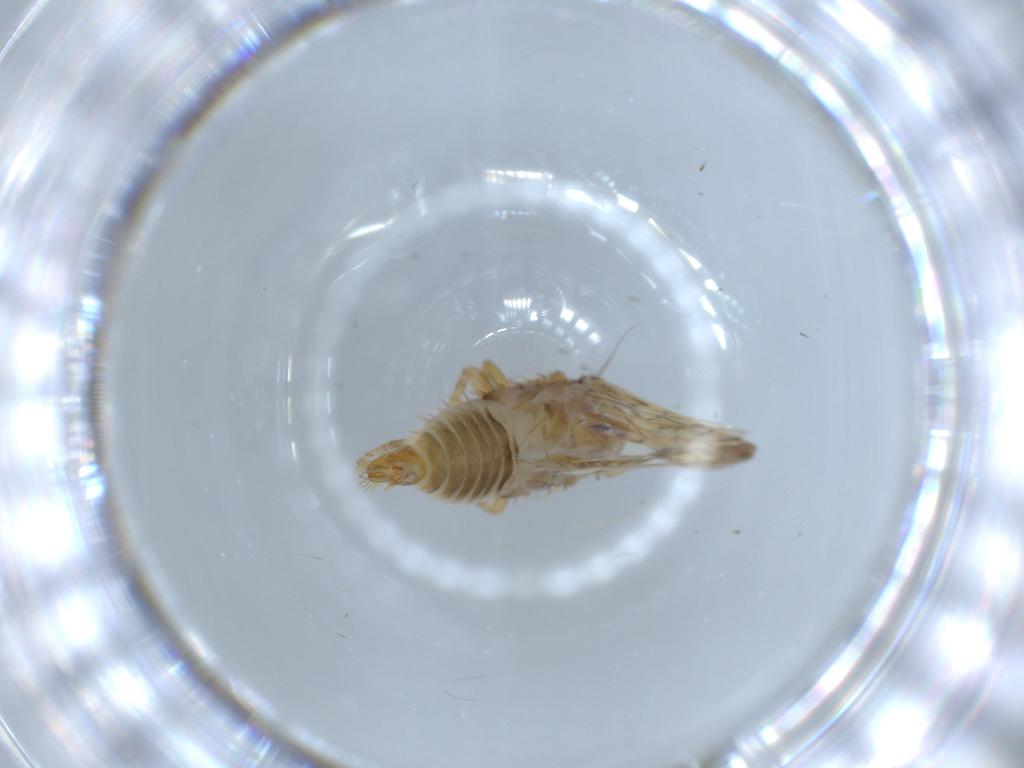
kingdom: Animalia
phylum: Arthropoda
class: Insecta
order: Hemiptera
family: Cicadellidae
